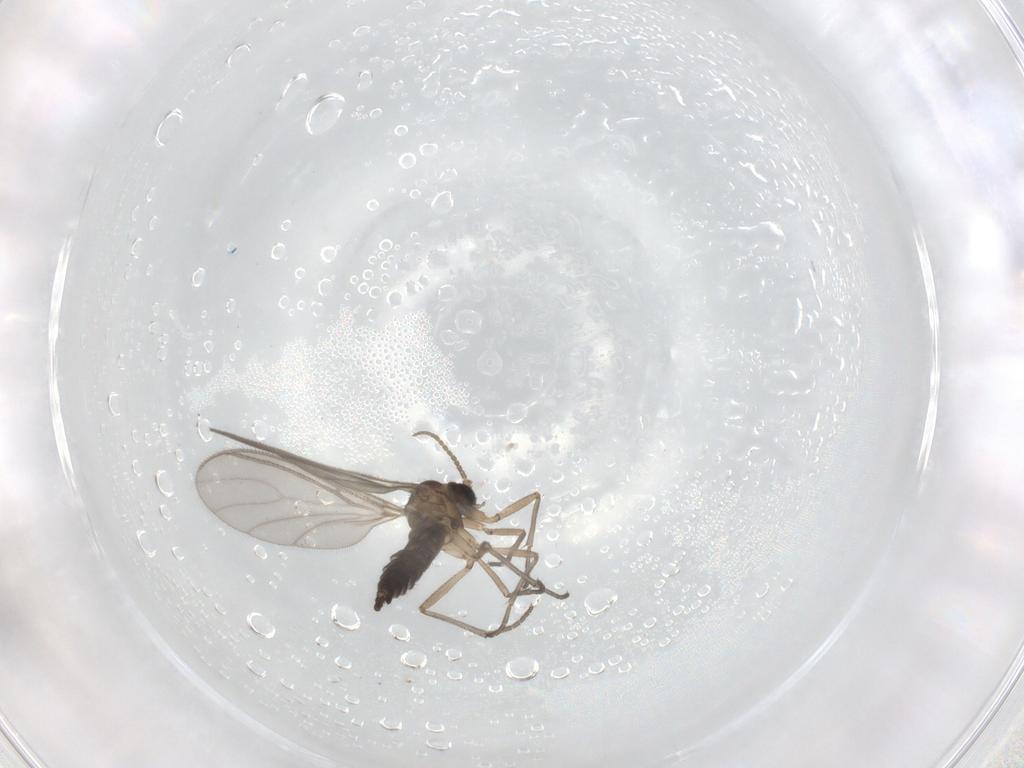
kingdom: Animalia
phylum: Arthropoda
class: Insecta
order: Diptera
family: Sciaridae
